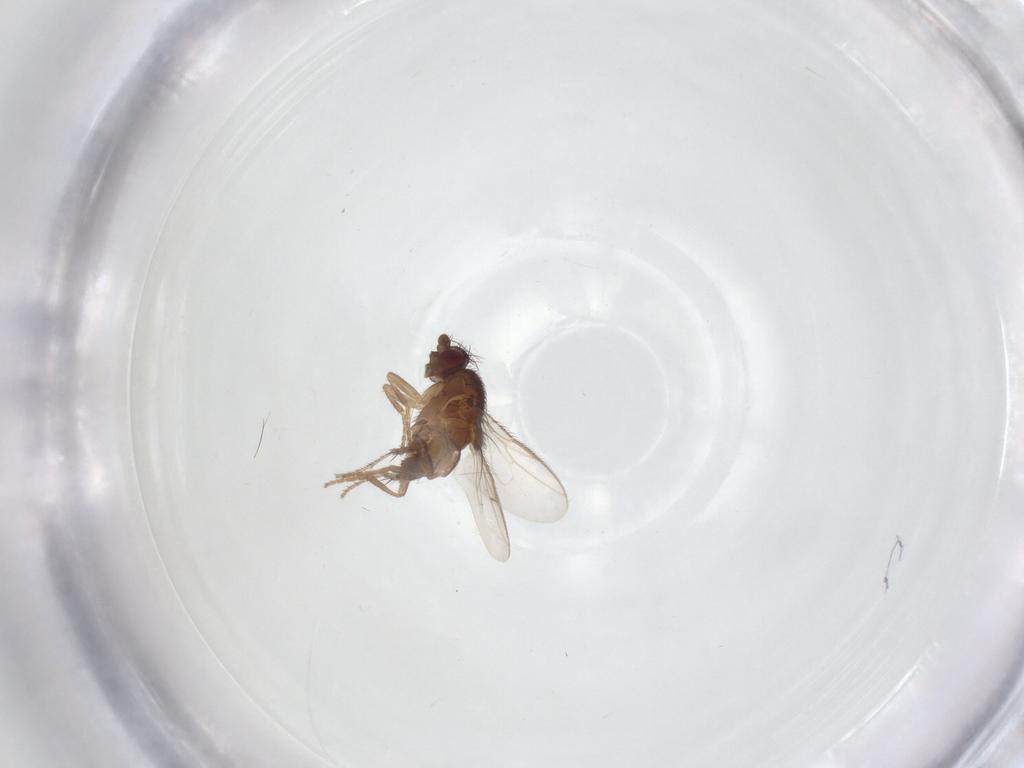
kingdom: Animalia
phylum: Arthropoda
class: Insecta
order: Diptera
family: Sphaeroceridae
